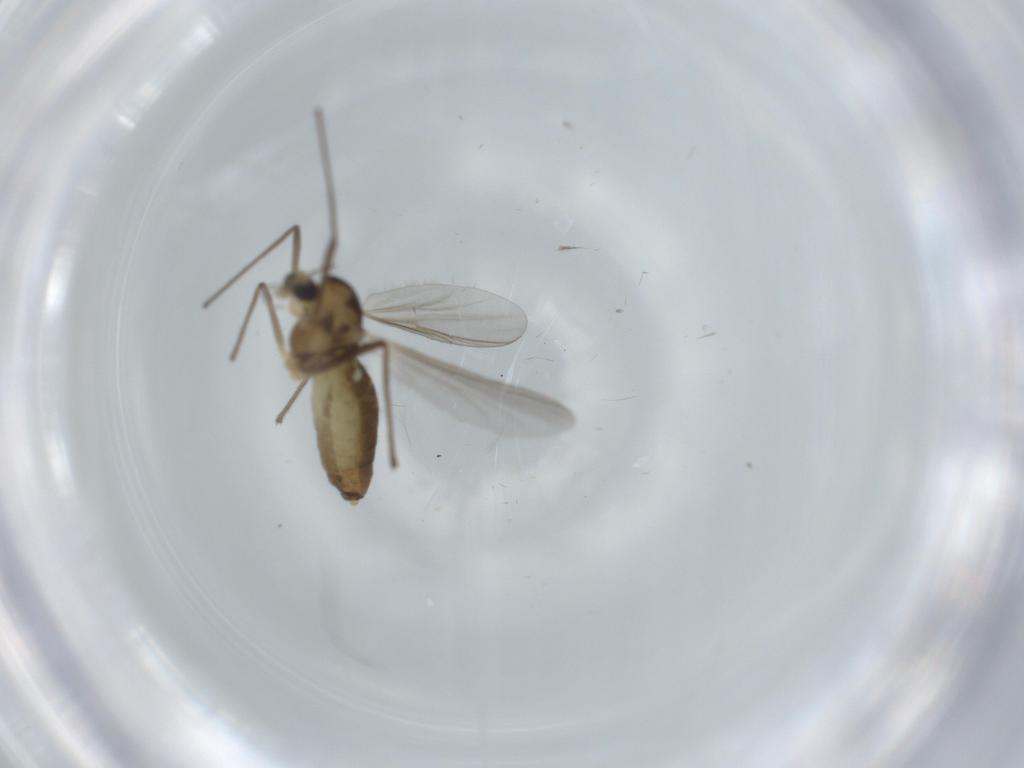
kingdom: Animalia
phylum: Arthropoda
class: Insecta
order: Diptera
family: Chironomidae
